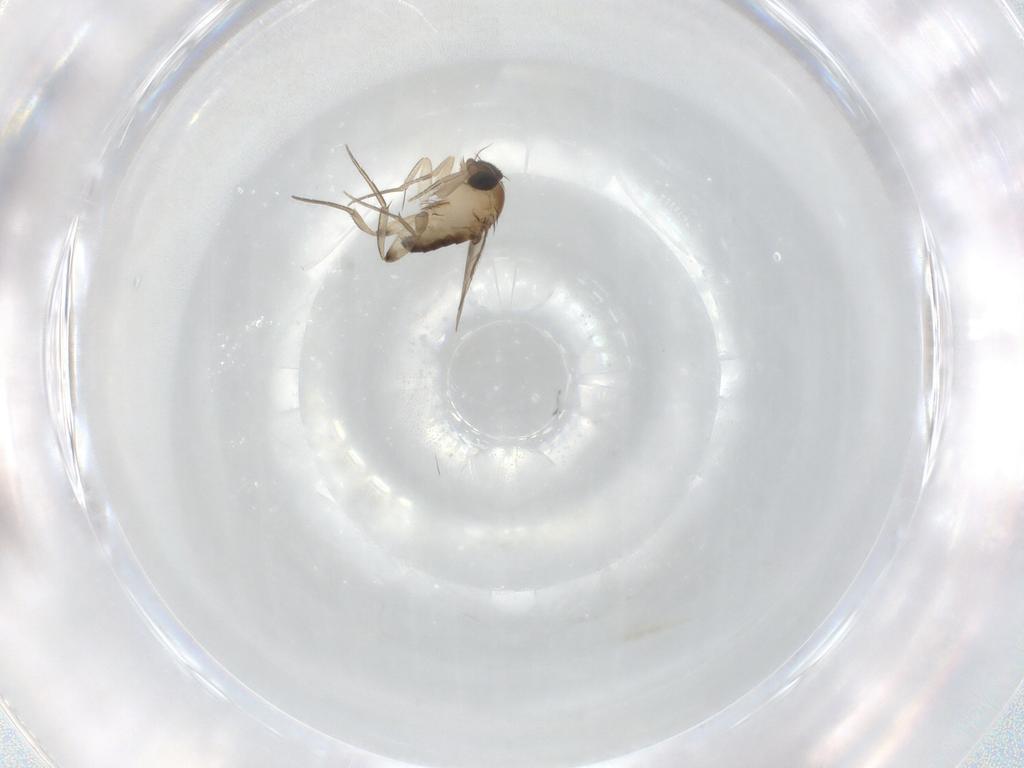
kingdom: Animalia
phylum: Arthropoda
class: Insecta
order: Diptera
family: Phoridae
